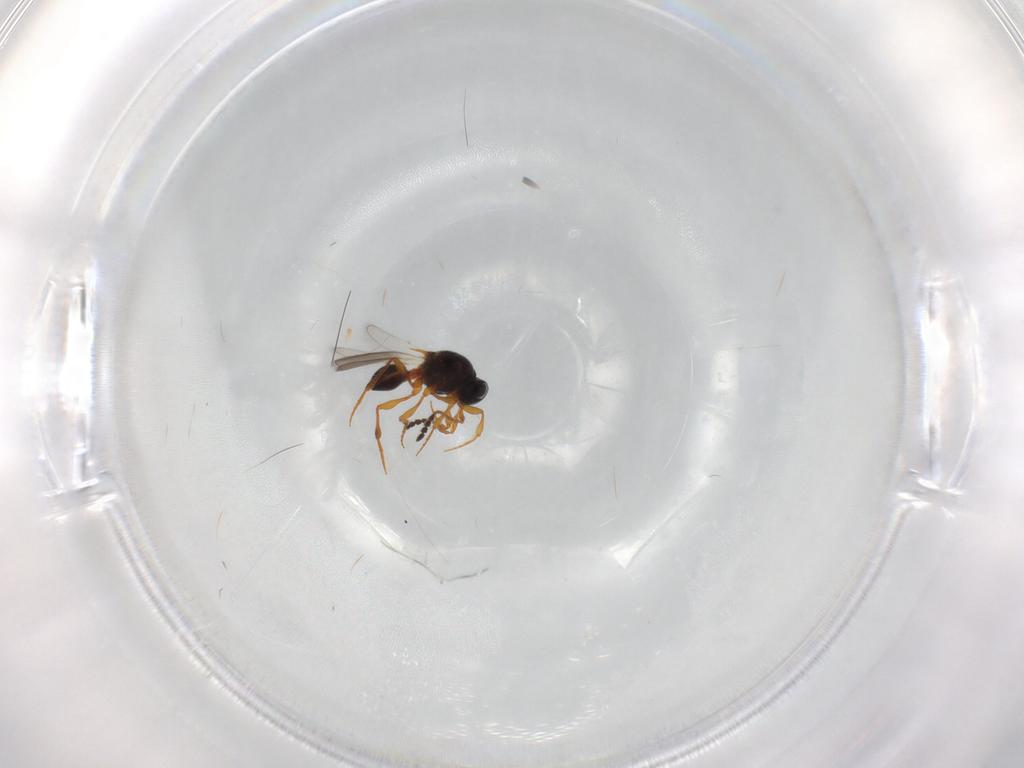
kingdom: Animalia
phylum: Arthropoda
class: Insecta
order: Hymenoptera
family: Platygastridae
